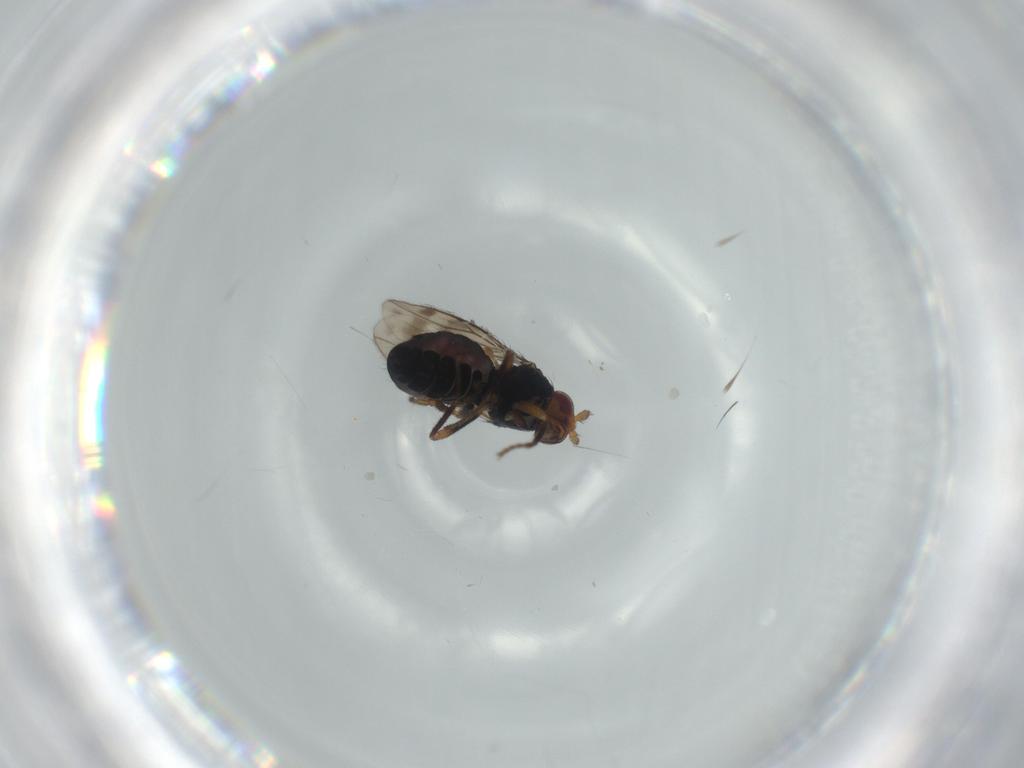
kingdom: Animalia
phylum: Arthropoda
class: Insecta
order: Diptera
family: Sphaeroceridae
